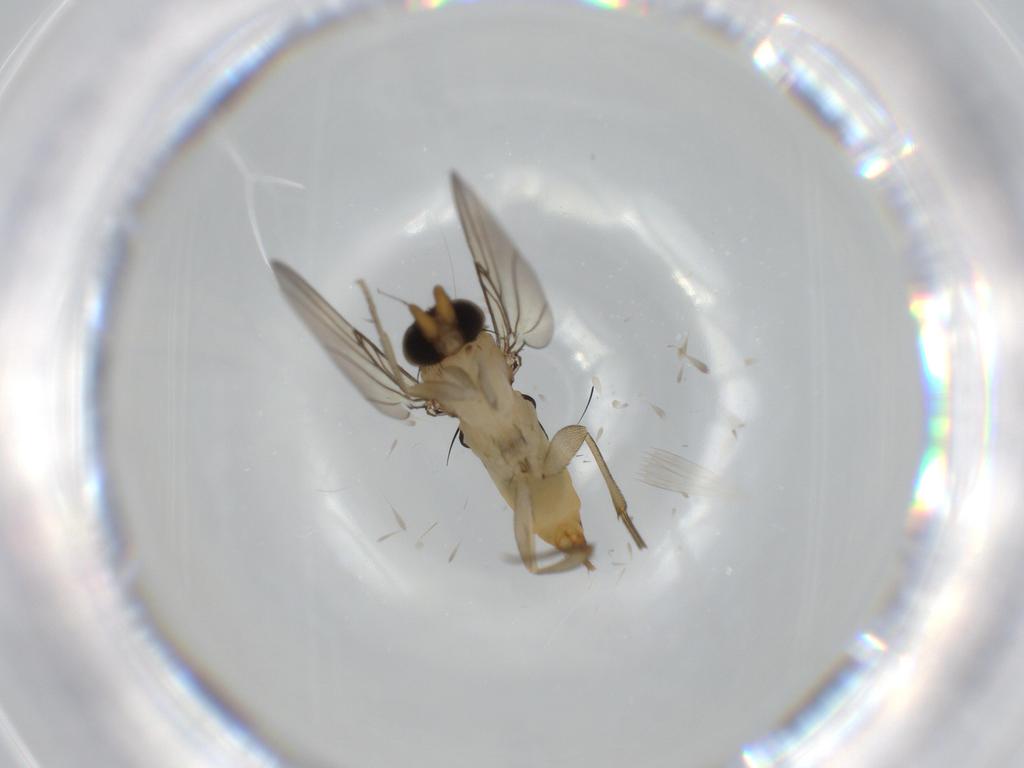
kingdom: Animalia
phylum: Arthropoda
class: Insecta
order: Diptera
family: Phoridae
